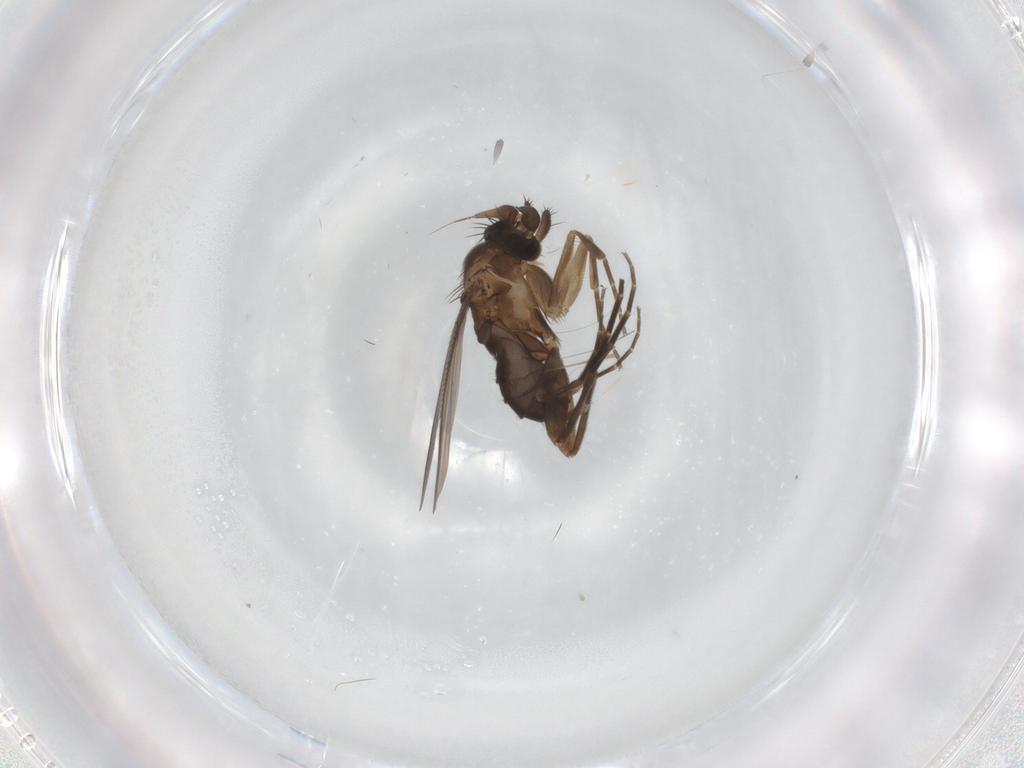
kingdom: Animalia
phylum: Arthropoda
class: Insecta
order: Diptera
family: Phoridae
